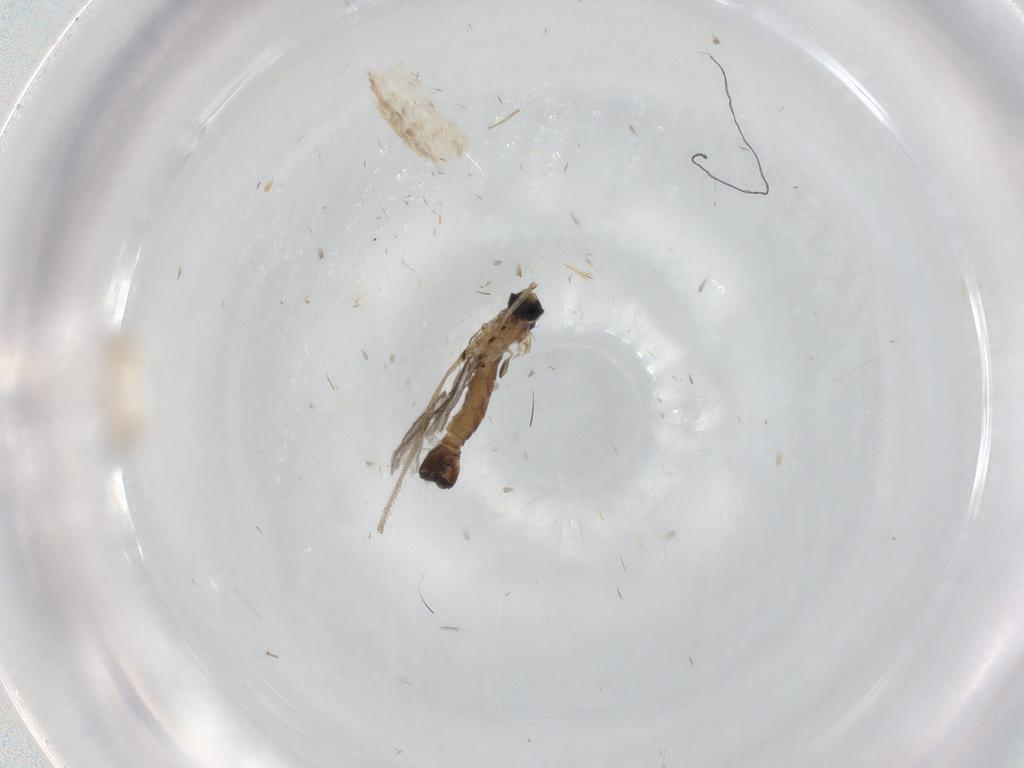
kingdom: Animalia
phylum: Arthropoda
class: Insecta
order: Diptera
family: Sciaridae
